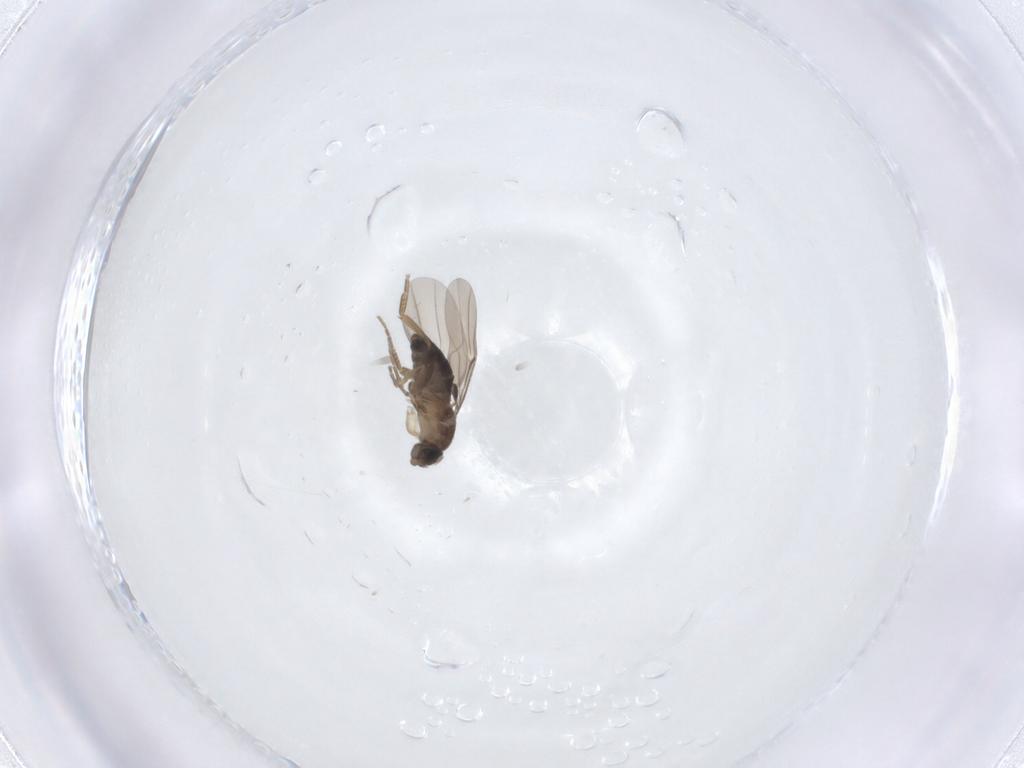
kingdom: Animalia
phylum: Arthropoda
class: Insecta
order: Diptera
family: Phoridae
